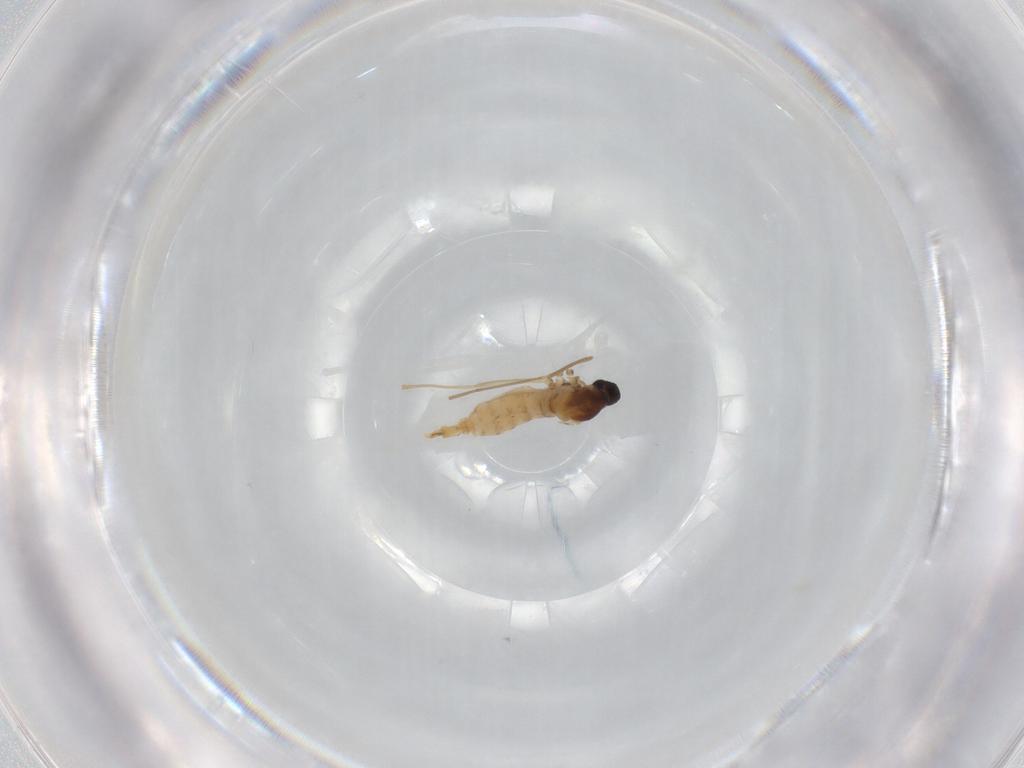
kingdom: Animalia
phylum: Arthropoda
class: Insecta
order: Diptera
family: Cecidomyiidae
